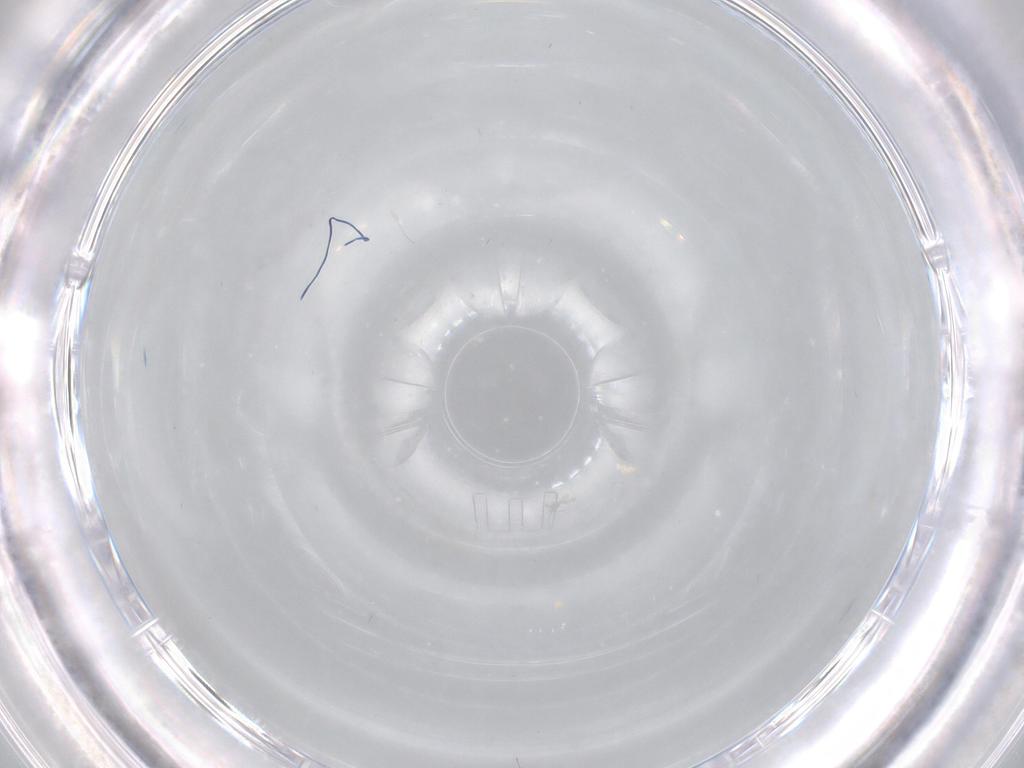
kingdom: Animalia
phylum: Arthropoda
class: Insecta
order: Diptera
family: Cecidomyiidae
